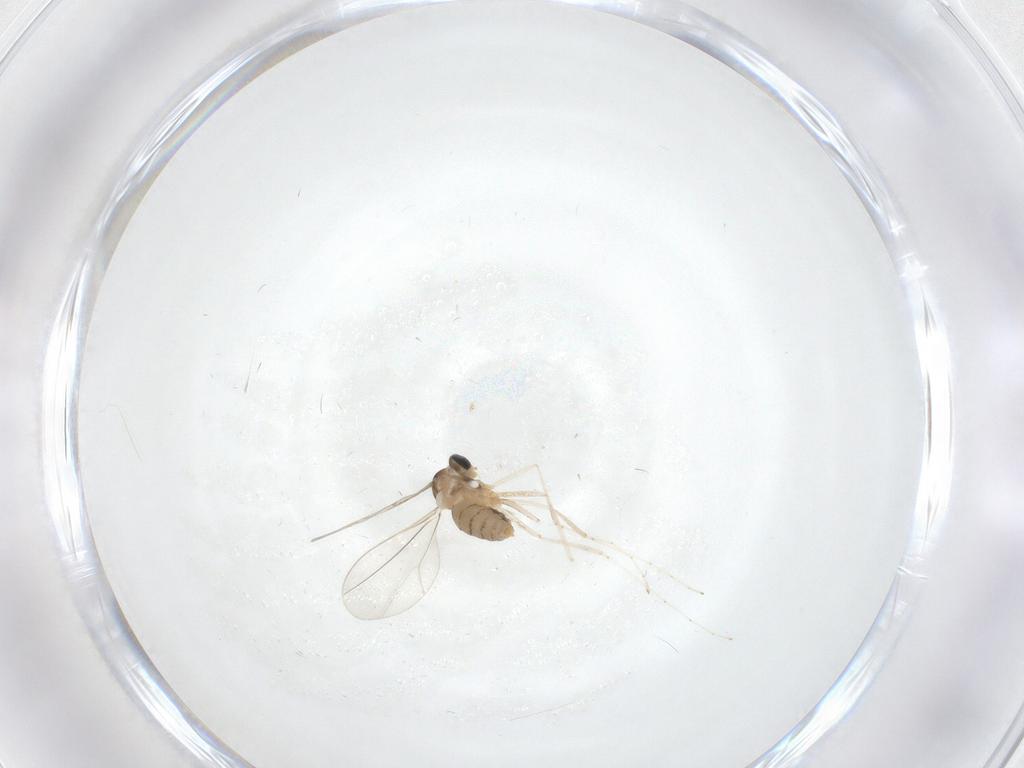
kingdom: Animalia
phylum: Arthropoda
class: Insecta
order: Diptera
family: Cecidomyiidae
